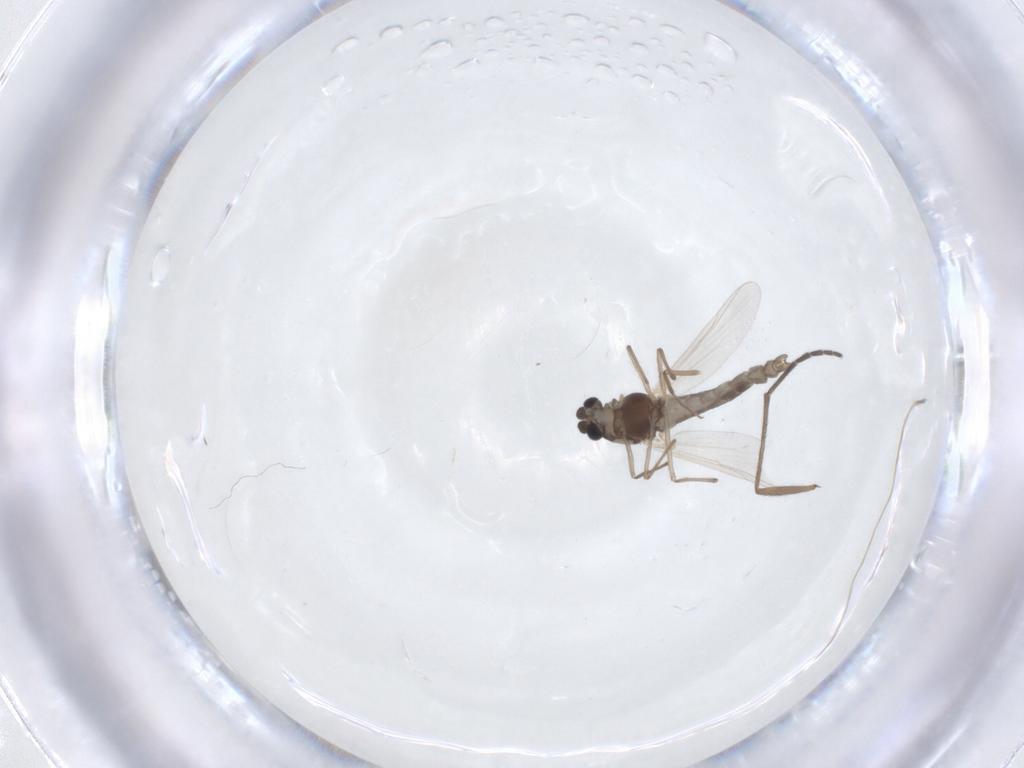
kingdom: Animalia
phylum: Arthropoda
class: Insecta
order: Diptera
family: Chironomidae
